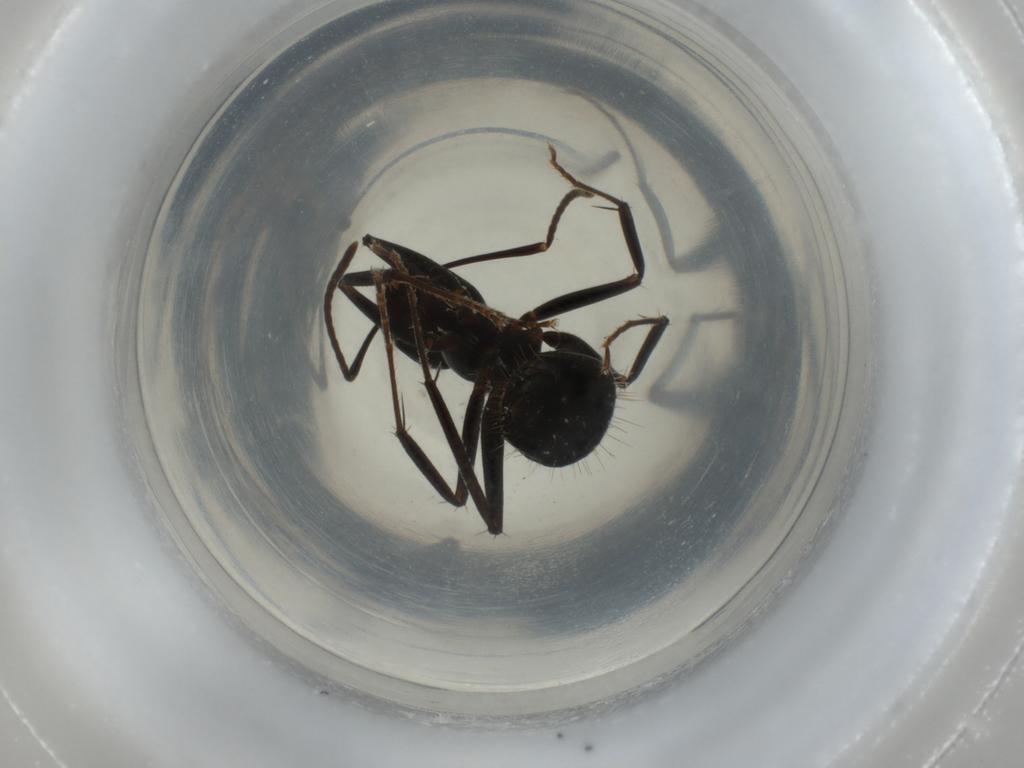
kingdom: Animalia
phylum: Arthropoda
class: Insecta
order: Hymenoptera
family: Formicidae
